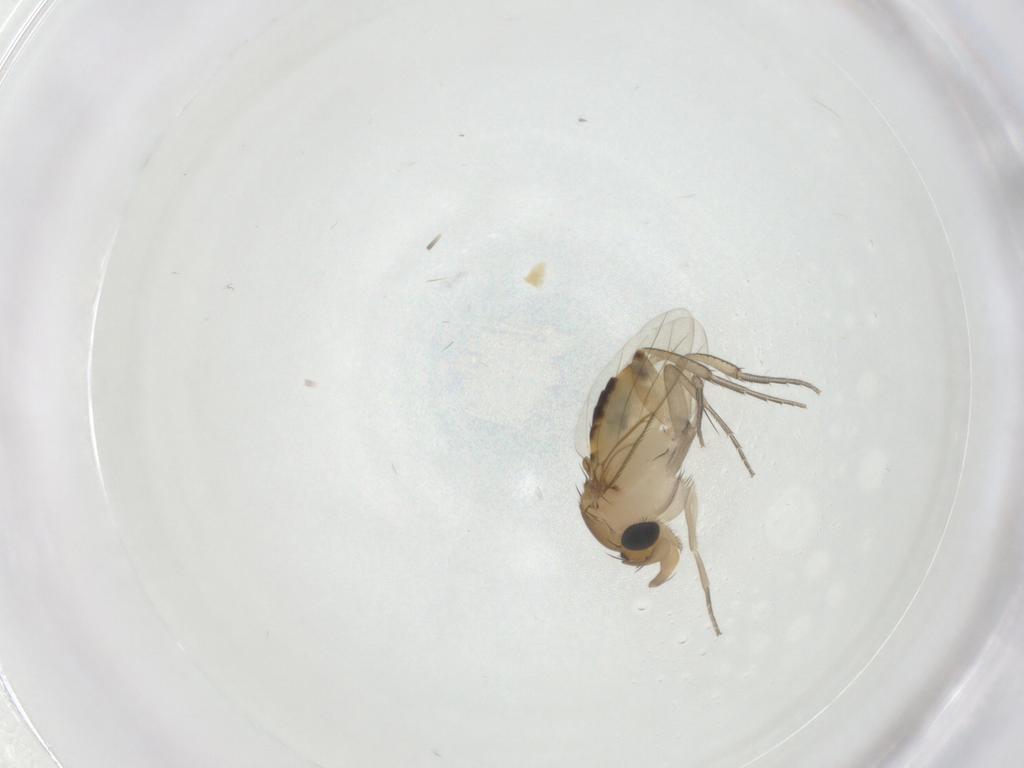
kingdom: Animalia
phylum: Arthropoda
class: Insecta
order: Diptera
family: Phoridae
